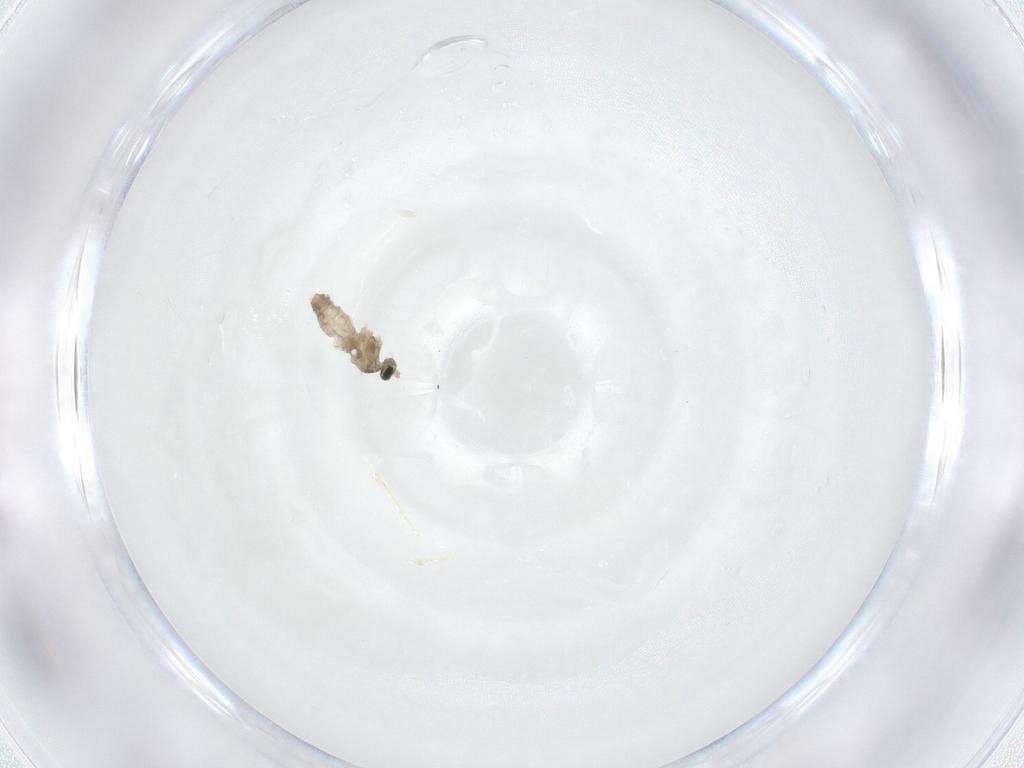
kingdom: Animalia
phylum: Arthropoda
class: Insecta
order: Diptera
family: Cecidomyiidae
